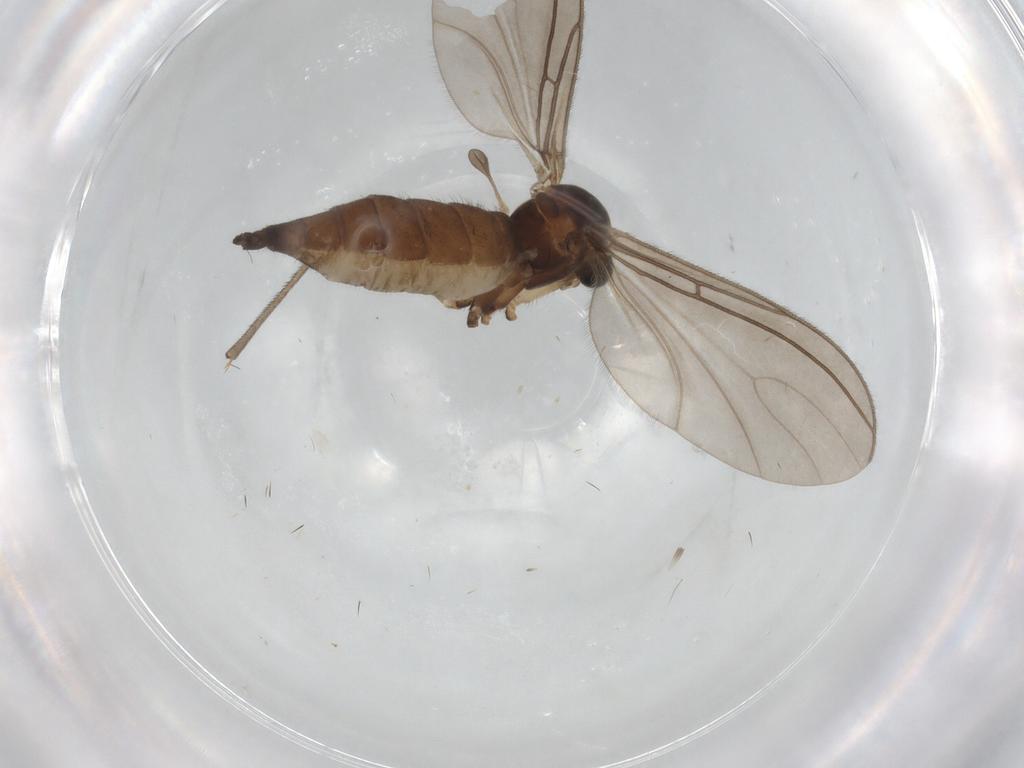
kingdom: Animalia
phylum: Arthropoda
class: Insecta
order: Diptera
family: Sciaridae
